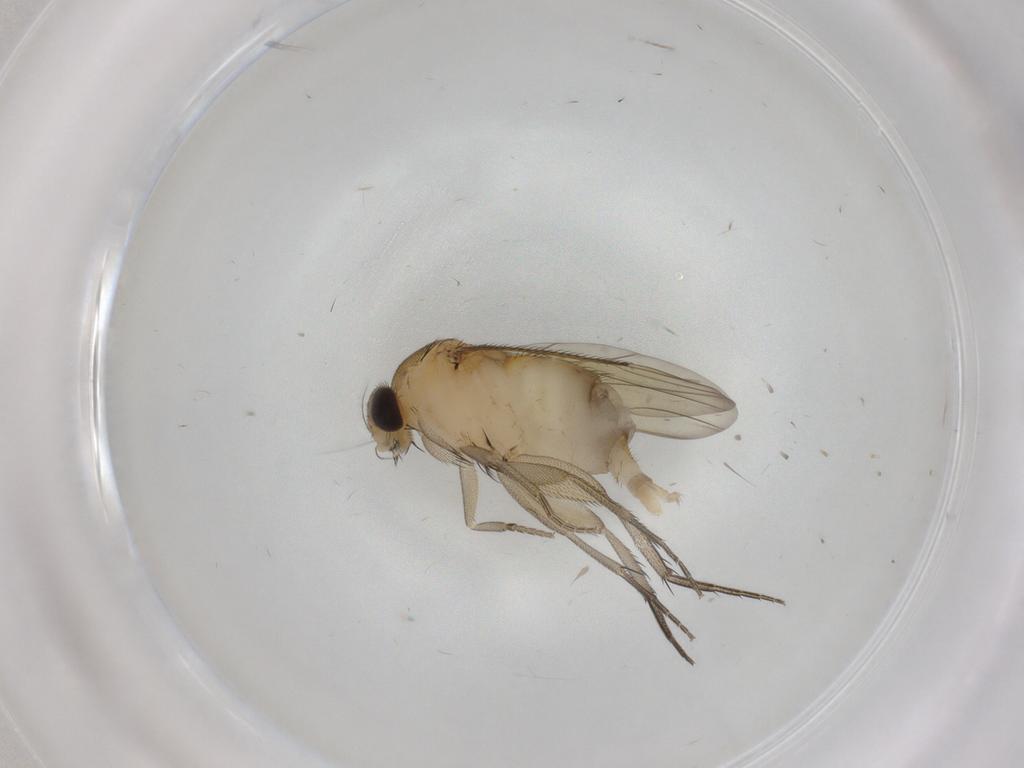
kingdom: Animalia
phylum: Arthropoda
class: Insecta
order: Diptera
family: Phoridae
